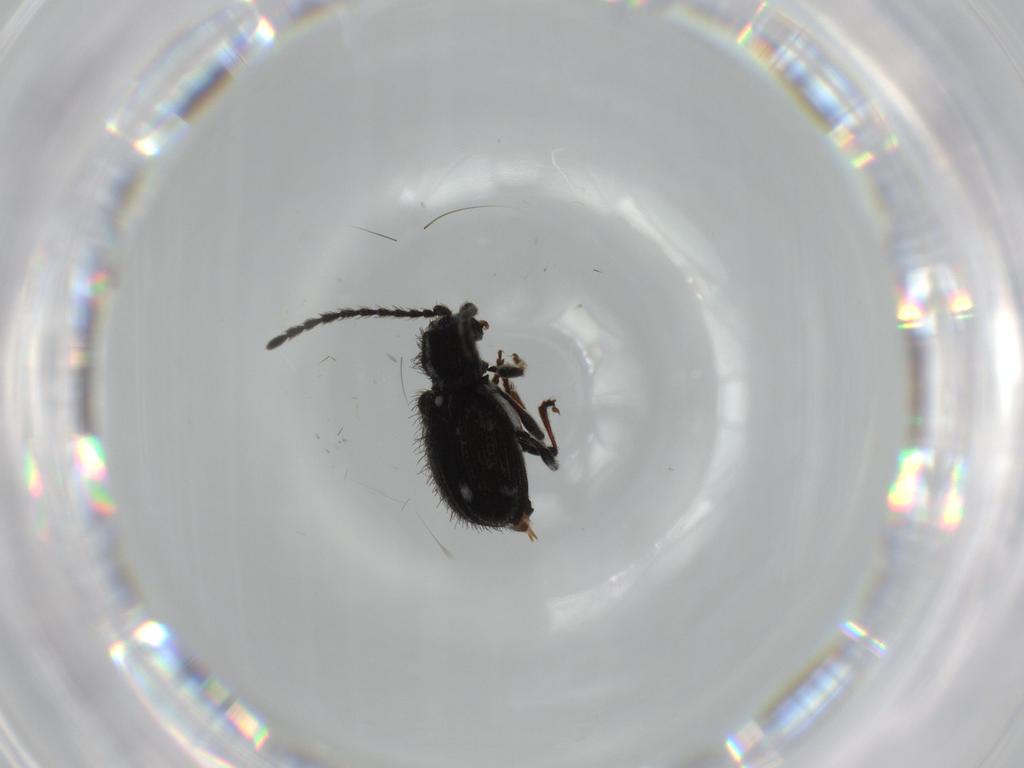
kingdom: Animalia
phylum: Arthropoda
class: Insecta
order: Coleoptera
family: Ptinidae
